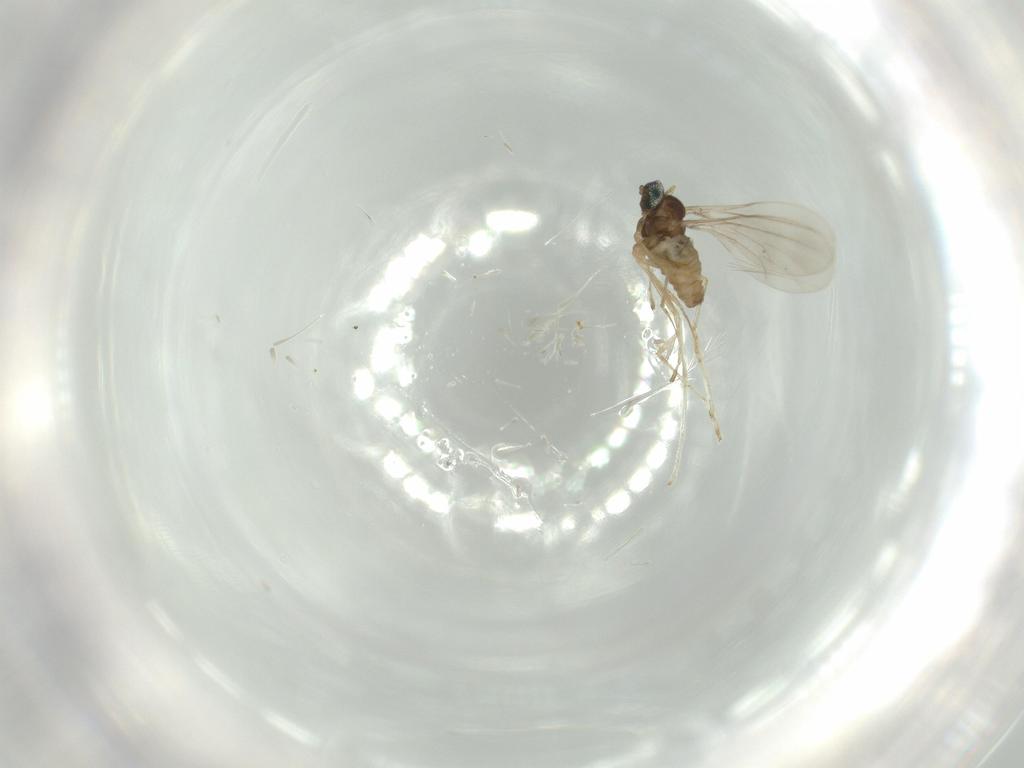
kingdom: Animalia
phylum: Arthropoda
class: Insecta
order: Diptera
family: Cecidomyiidae
